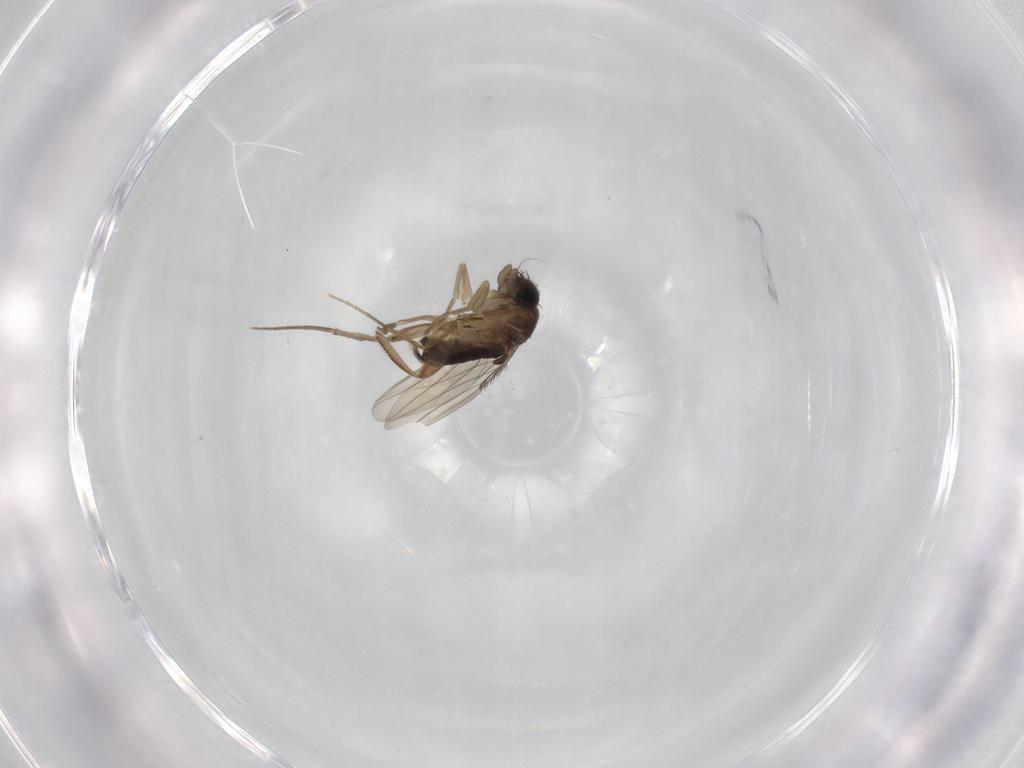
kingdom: Animalia
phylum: Arthropoda
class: Insecta
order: Diptera
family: Phoridae
